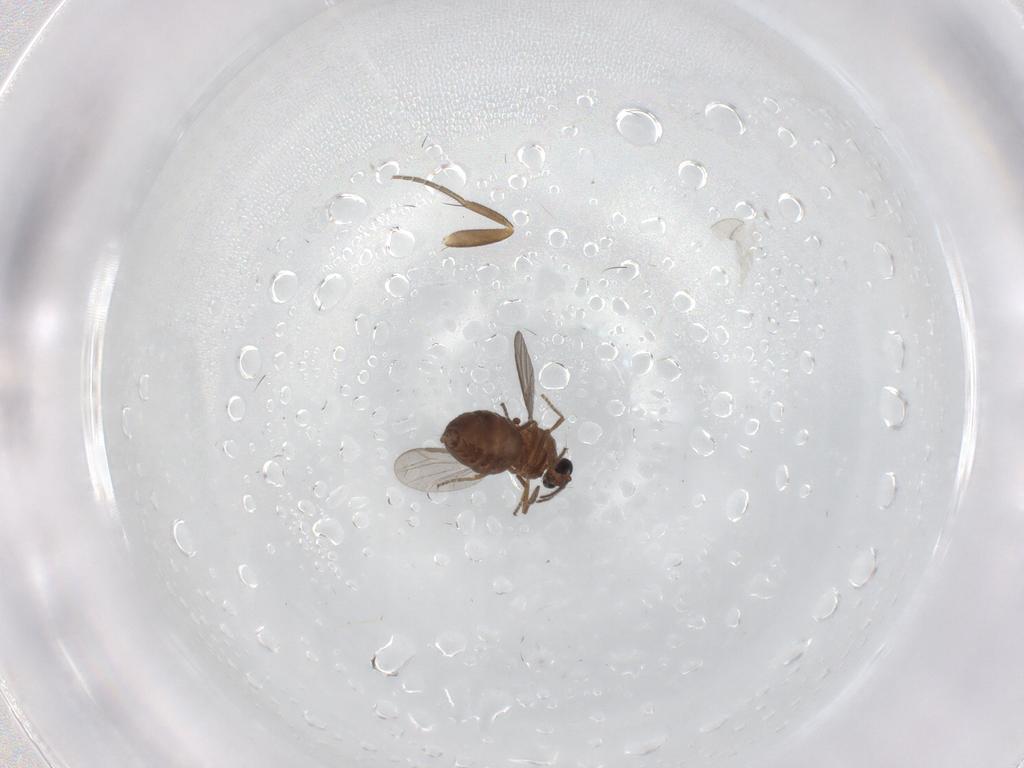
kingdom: Animalia
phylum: Arthropoda
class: Insecta
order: Diptera
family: Ceratopogonidae
